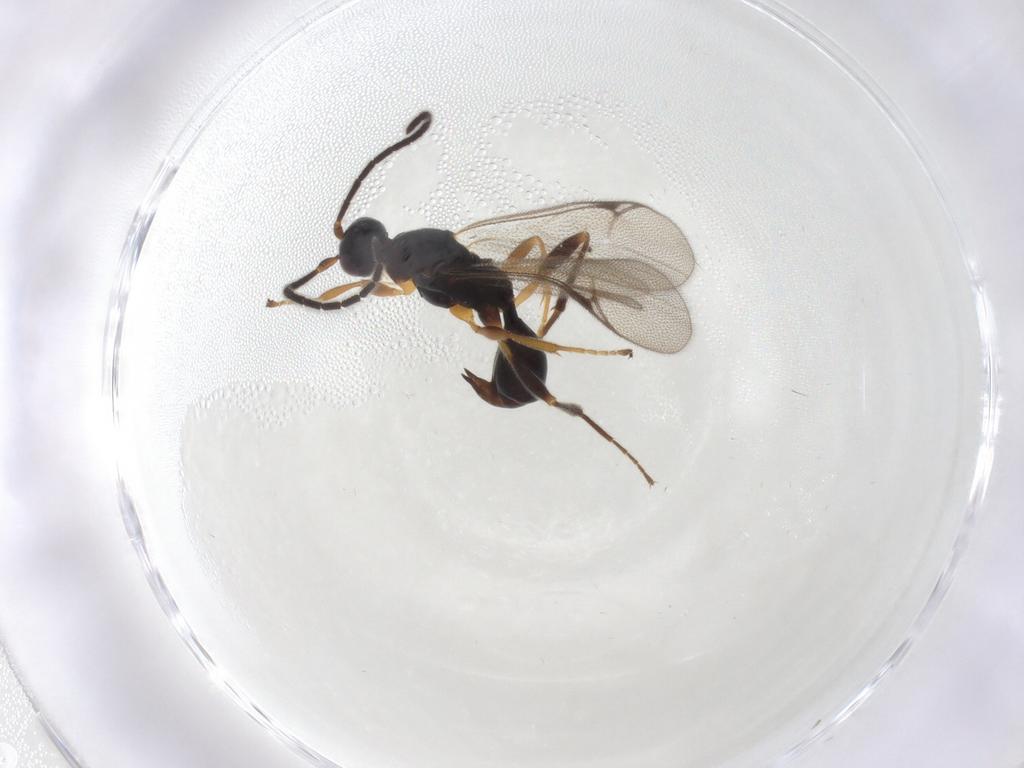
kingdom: Animalia
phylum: Arthropoda
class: Insecta
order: Hymenoptera
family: Proctotrupidae
